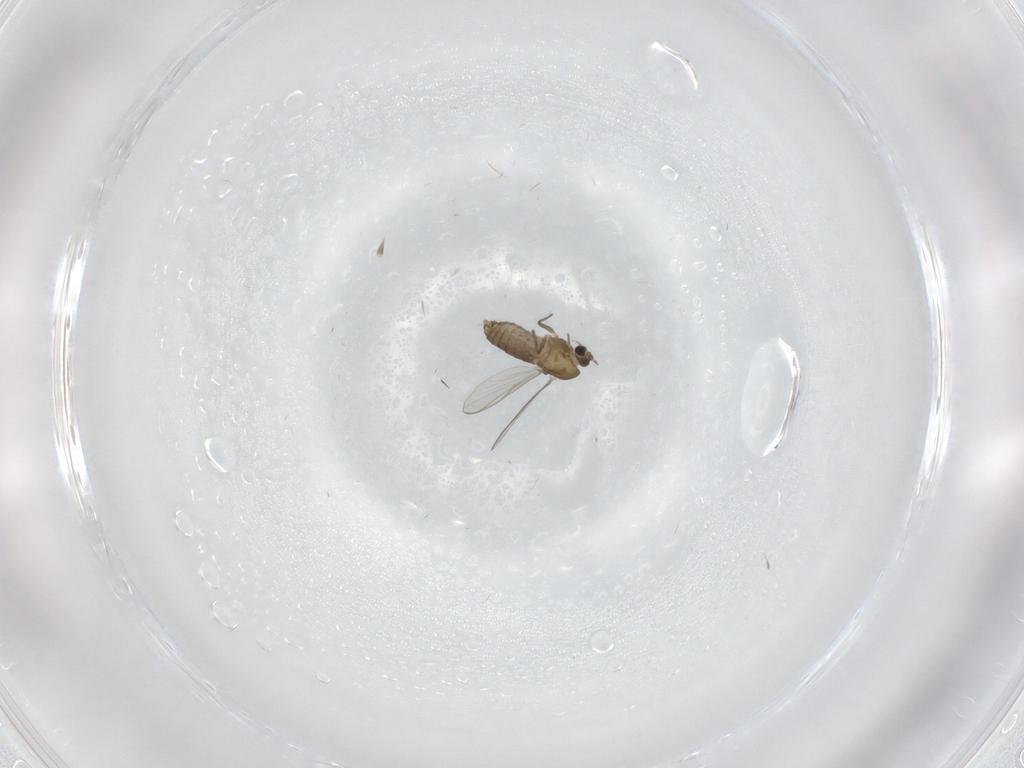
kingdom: Animalia
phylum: Arthropoda
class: Insecta
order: Diptera
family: Chironomidae
